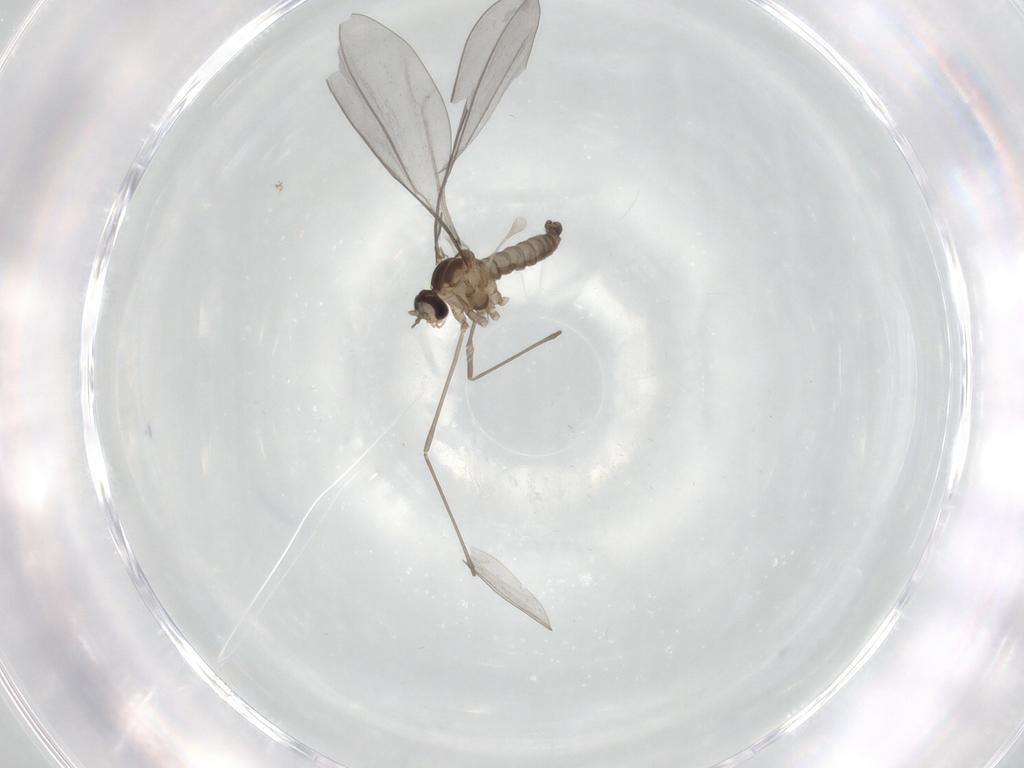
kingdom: Animalia
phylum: Arthropoda
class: Insecta
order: Diptera
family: Cecidomyiidae
